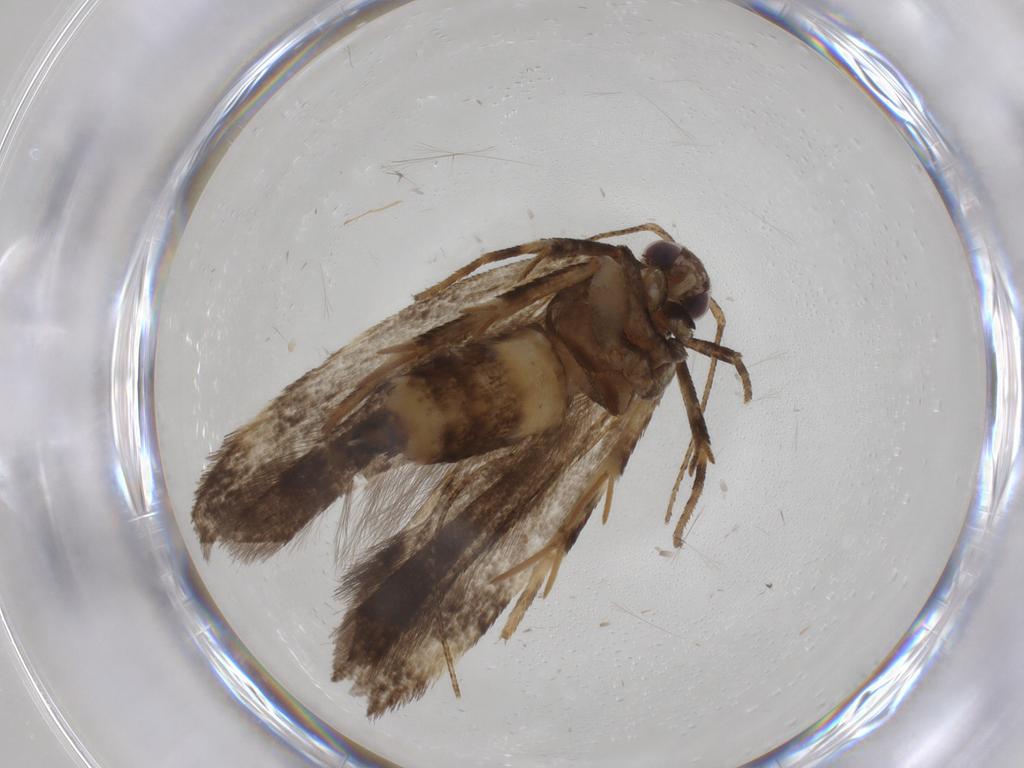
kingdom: Animalia
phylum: Arthropoda
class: Insecta
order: Lepidoptera
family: Gelechiidae
